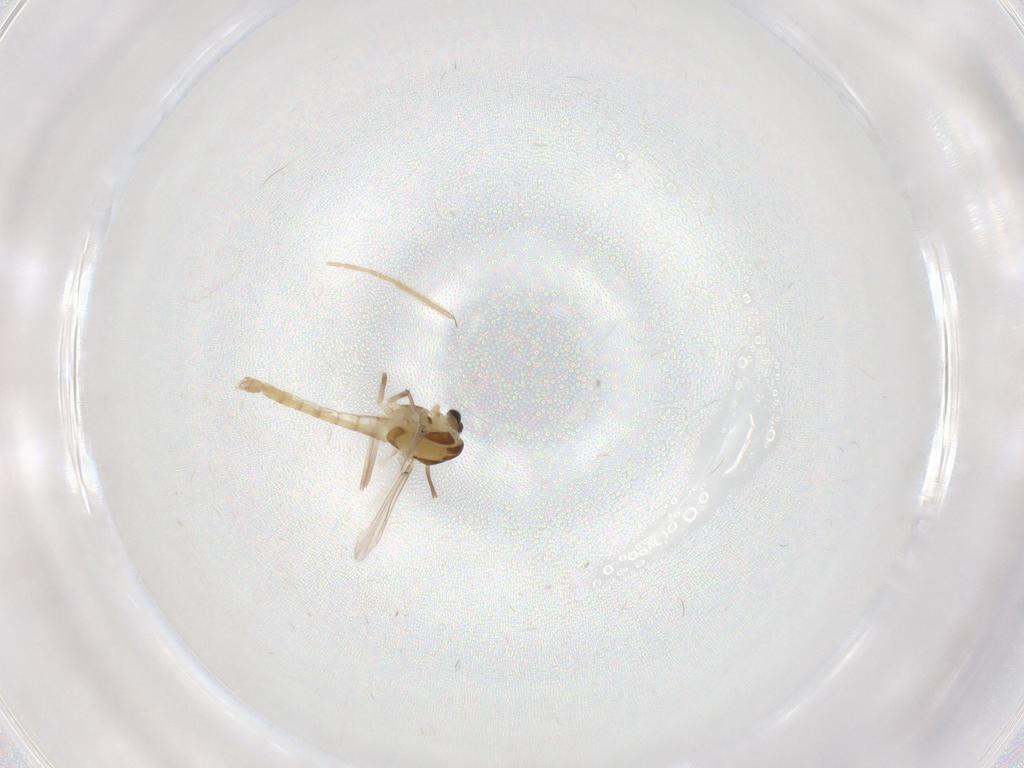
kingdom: Animalia
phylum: Arthropoda
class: Insecta
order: Diptera
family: Chironomidae
